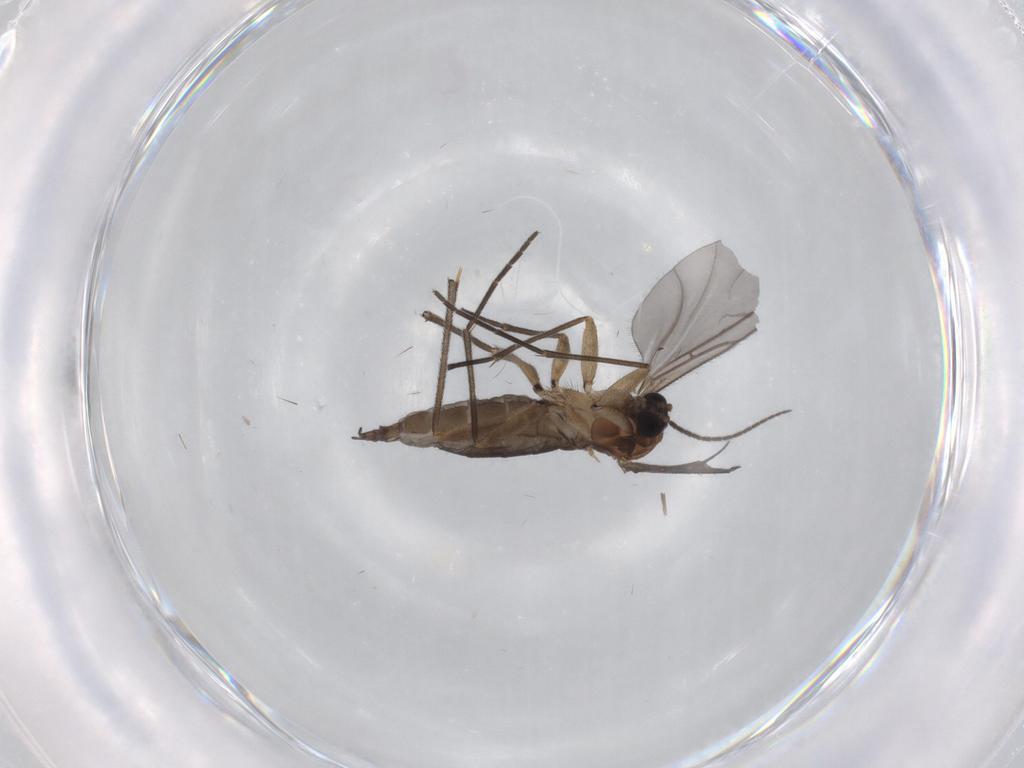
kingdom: Animalia
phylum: Arthropoda
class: Insecta
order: Diptera
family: Sciaridae
